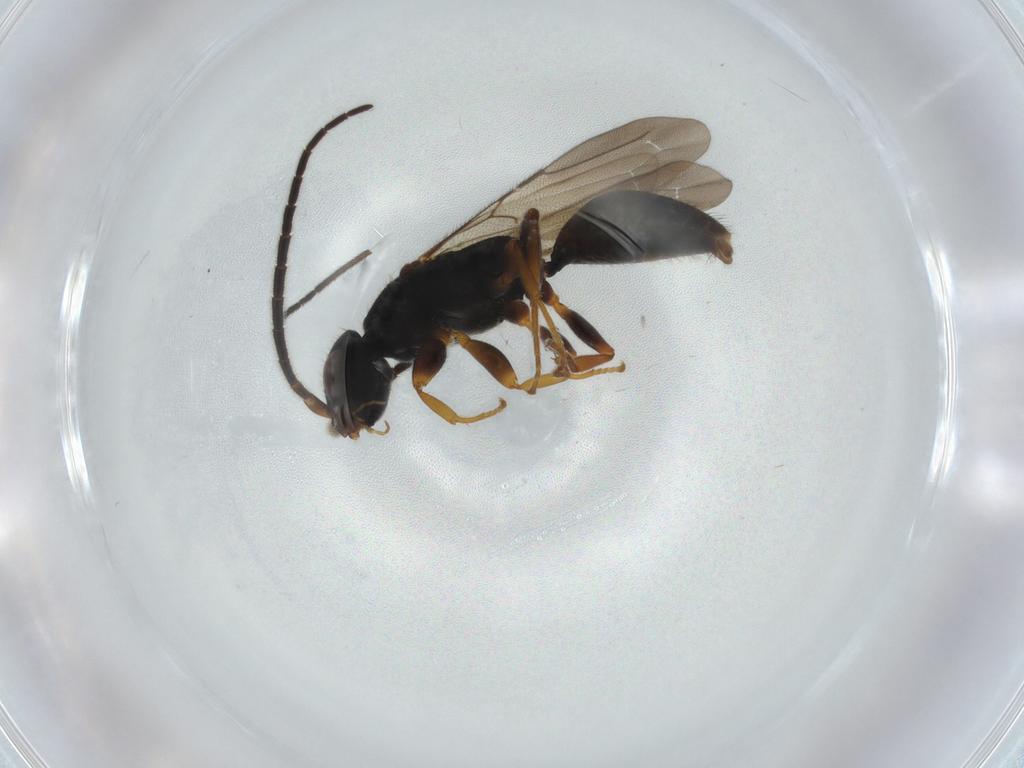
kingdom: Animalia
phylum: Arthropoda
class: Insecta
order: Hymenoptera
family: Bethylidae
